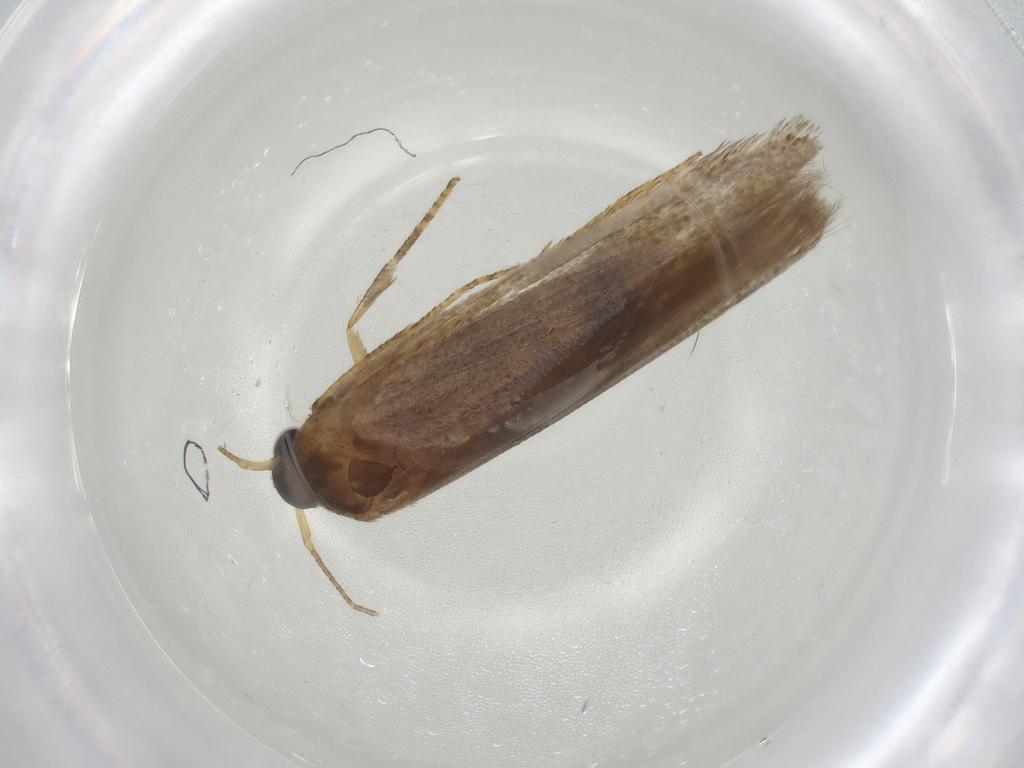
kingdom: Animalia
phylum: Arthropoda
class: Insecta
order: Lepidoptera
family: Blastobasidae
